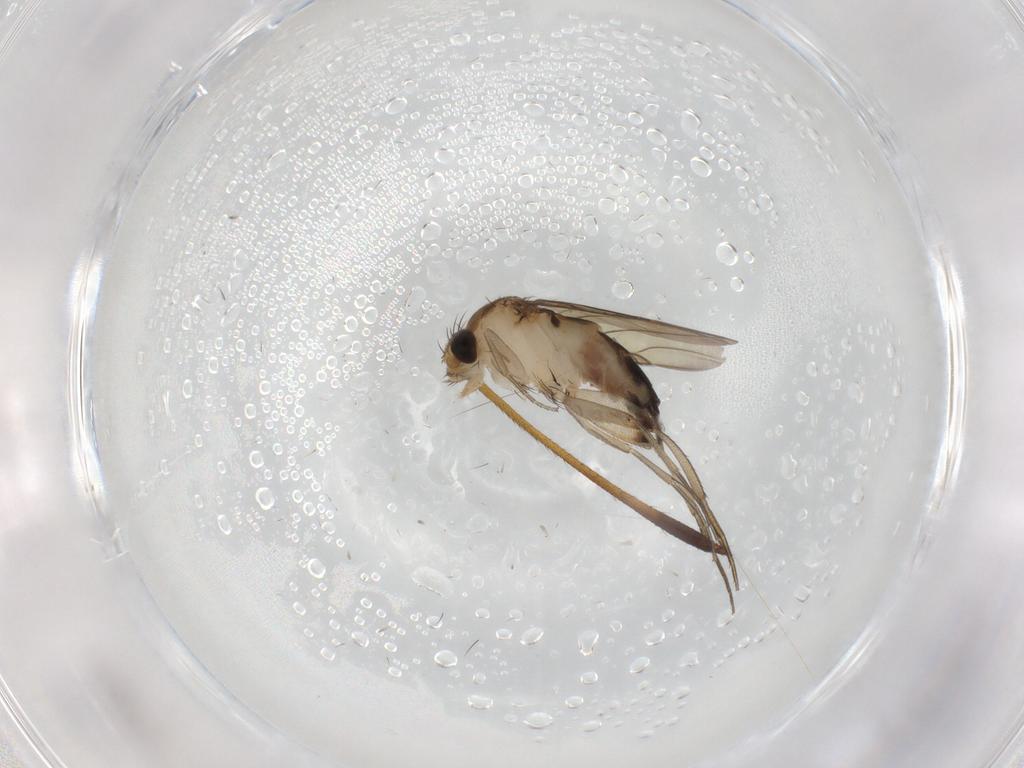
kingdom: Animalia
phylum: Arthropoda
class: Insecta
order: Diptera
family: Phoridae
